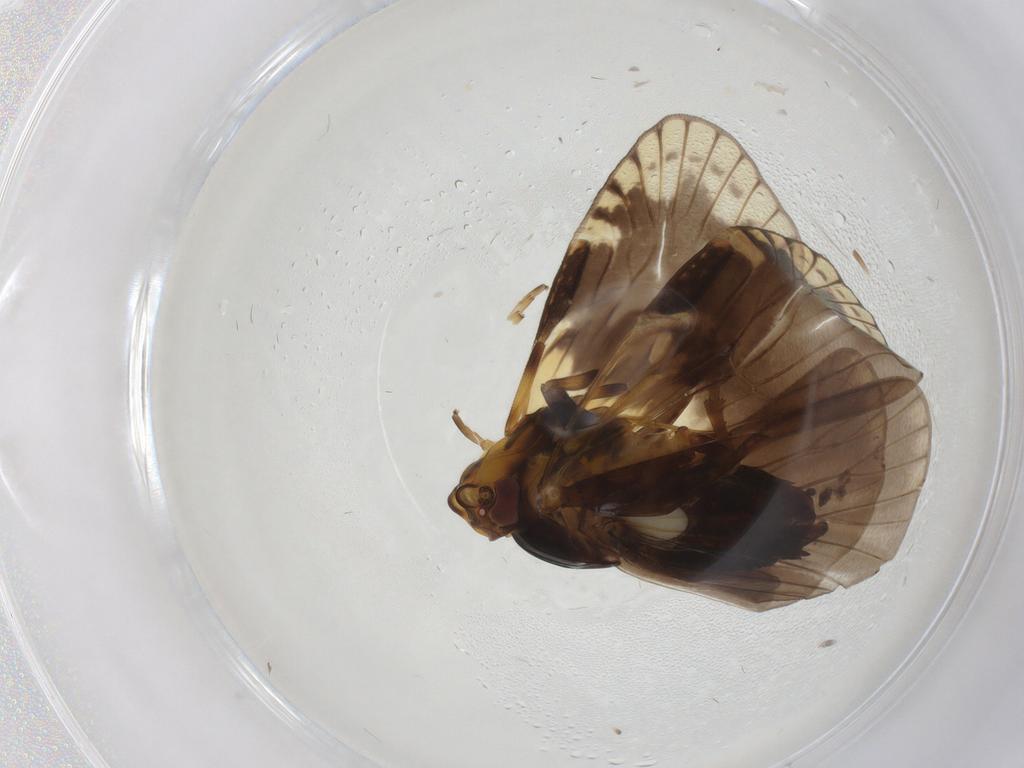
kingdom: Animalia
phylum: Arthropoda
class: Insecta
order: Hemiptera
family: Cixiidae
